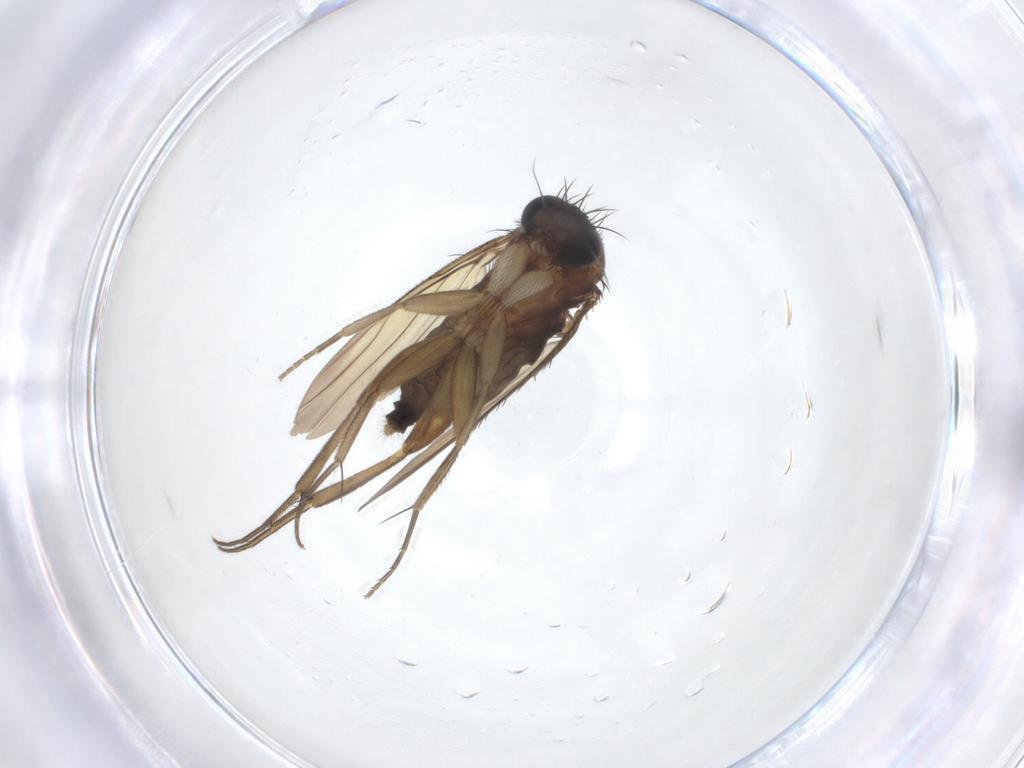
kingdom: Animalia
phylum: Arthropoda
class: Insecta
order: Diptera
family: Phoridae
